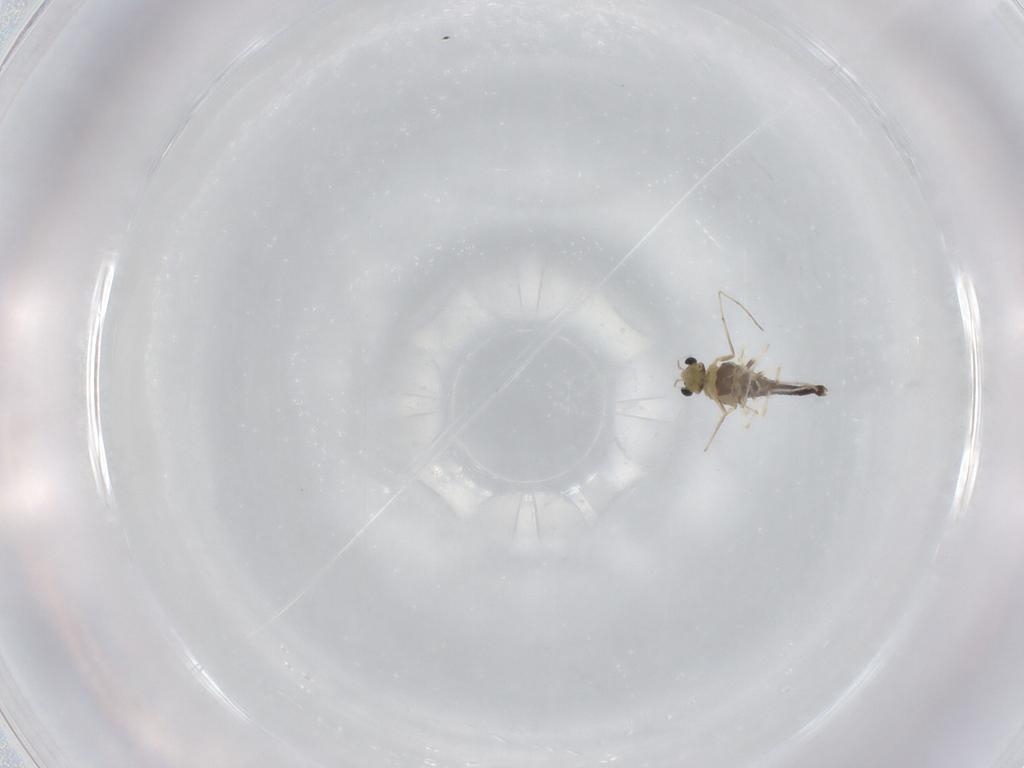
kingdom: Animalia
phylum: Arthropoda
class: Insecta
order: Diptera
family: Chironomidae
